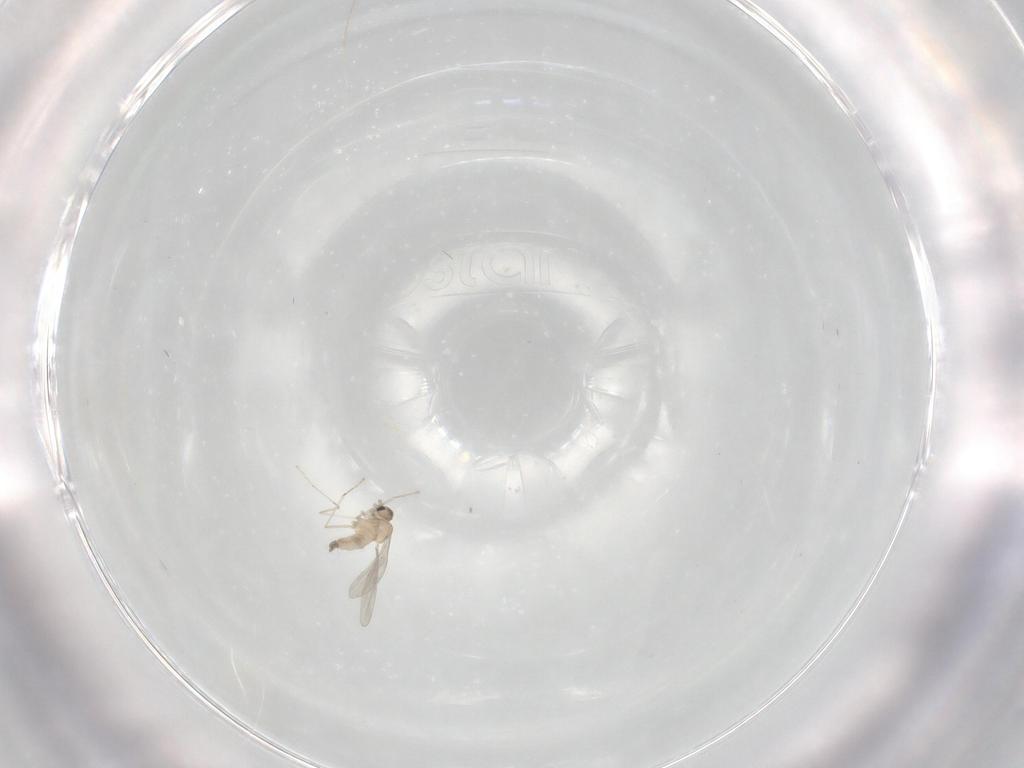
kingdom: Animalia
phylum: Arthropoda
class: Insecta
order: Diptera
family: Cecidomyiidae
